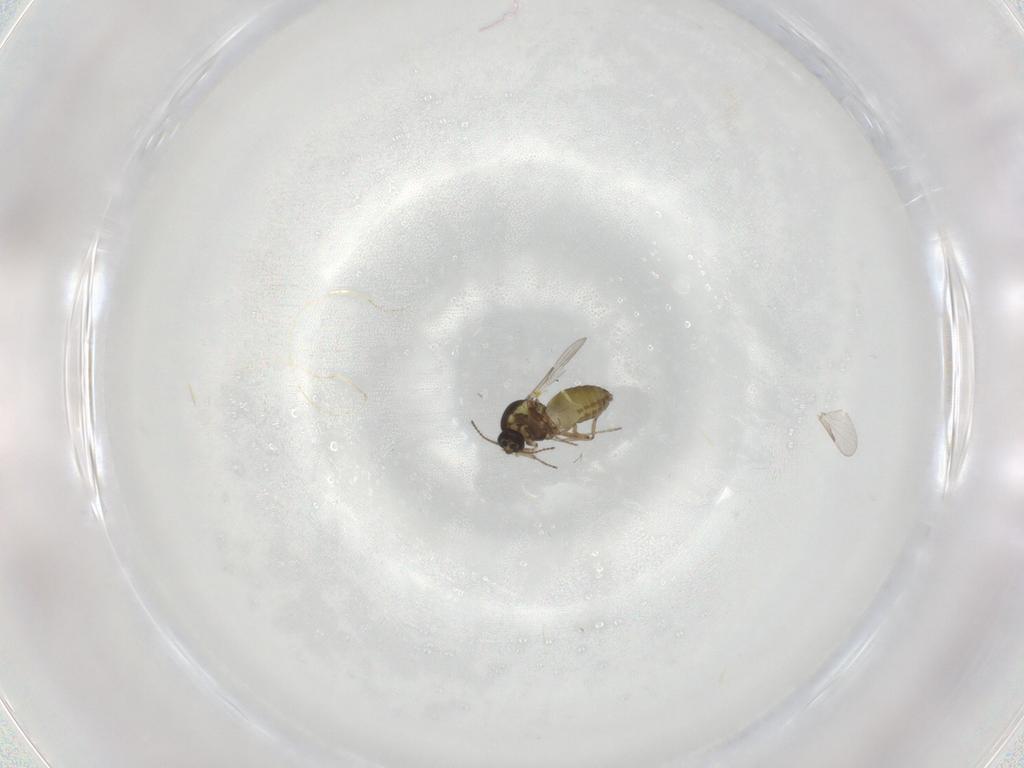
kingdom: Animalia
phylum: Arthropoda
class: Insecta
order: Diptera
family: Ceratopogonidae
